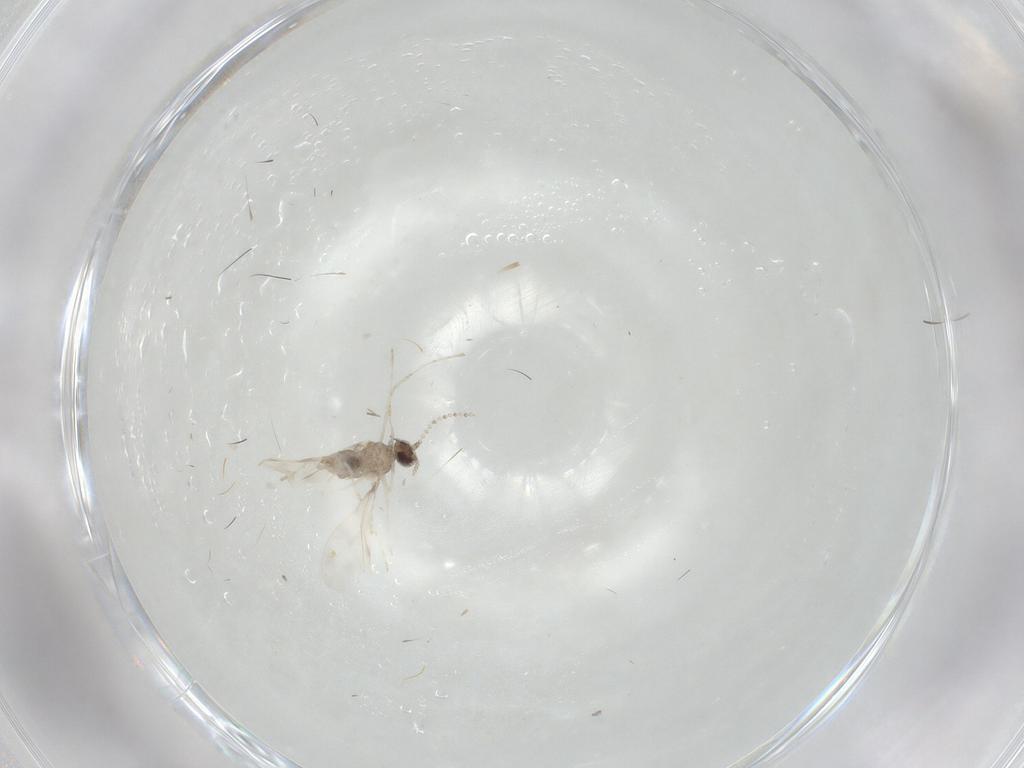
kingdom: Animalia
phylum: Arthropoda
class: Insecta
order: Diptera
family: Cecidomyiidae
